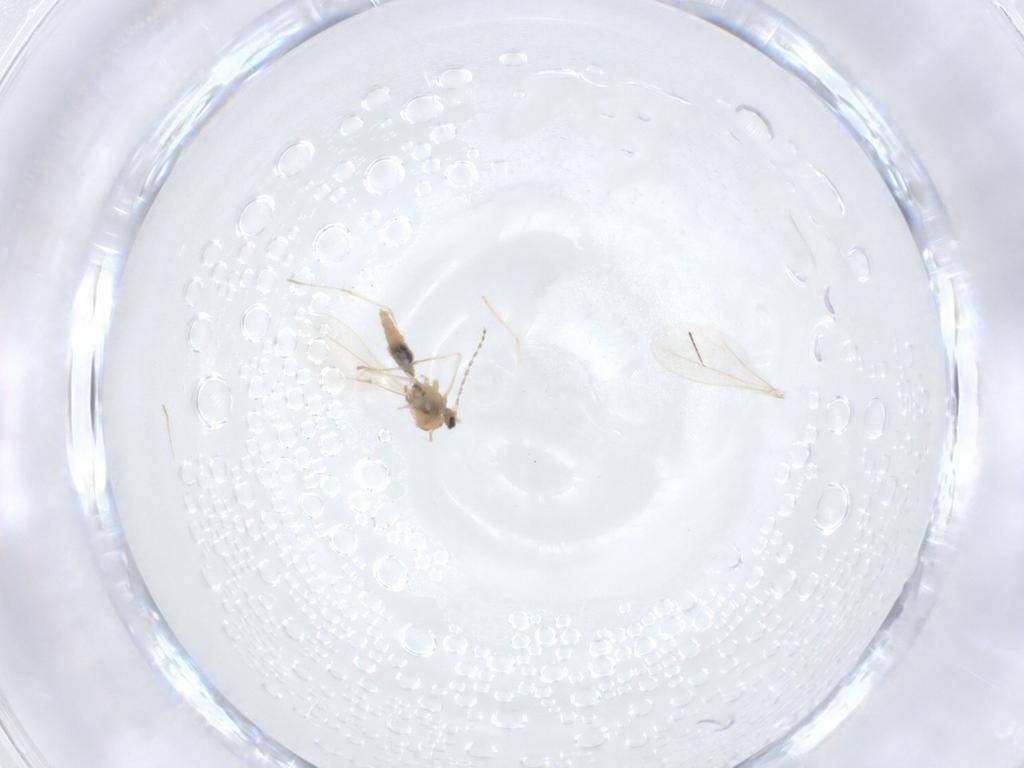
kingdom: Animalia
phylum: Arthropoda
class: Insecta
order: Diptera
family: Cecidomyiidae
